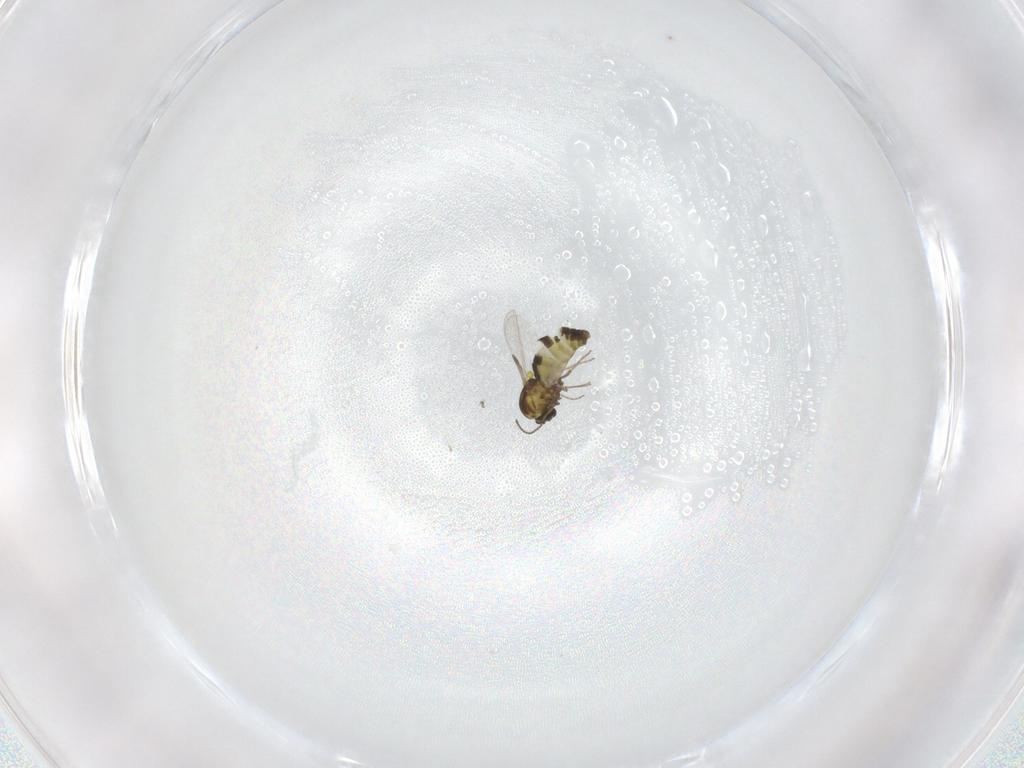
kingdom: Animalia
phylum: Arthropoda
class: Insecta
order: Diptera
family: Ceratopogonidae
